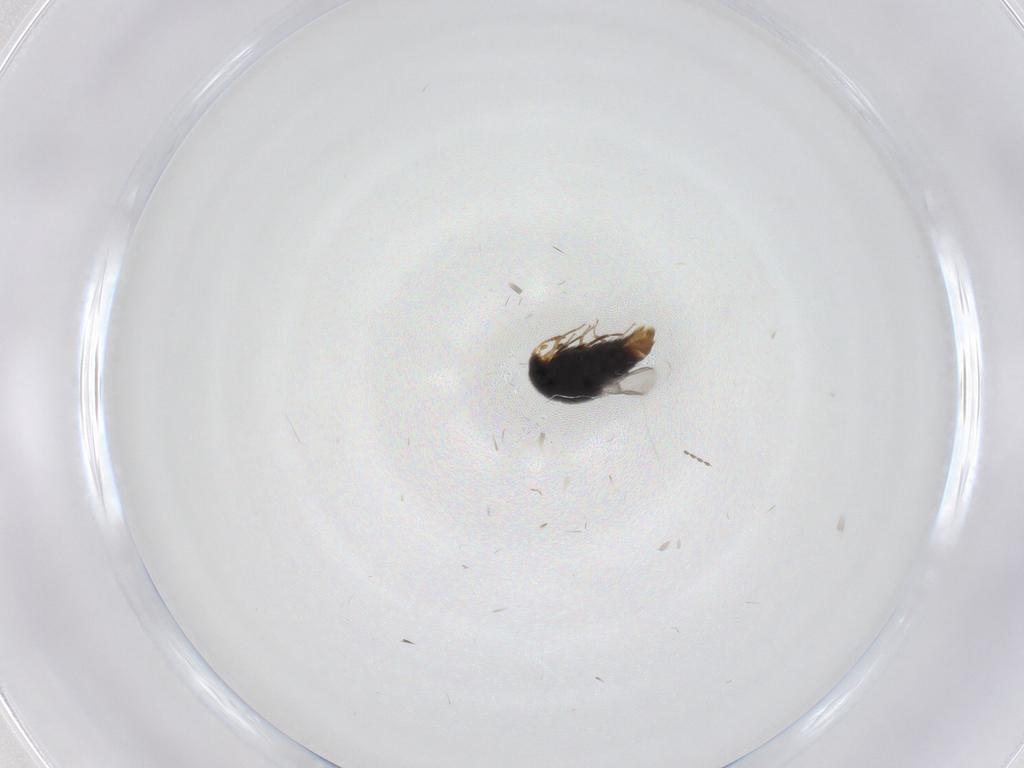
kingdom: Animalia
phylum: Arthropoda
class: Insecta
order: Diptera
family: Cecidomyiidae
